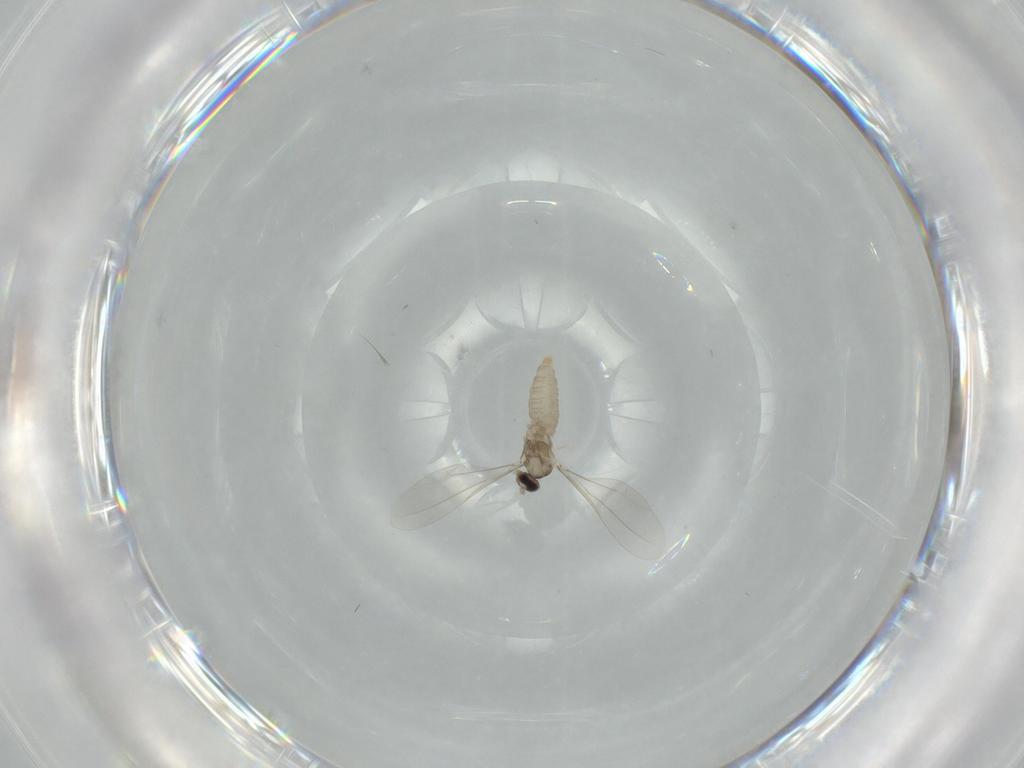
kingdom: Animalia
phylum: Arthropoda
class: Insecta
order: Diptera
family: Cecidomyiidae
